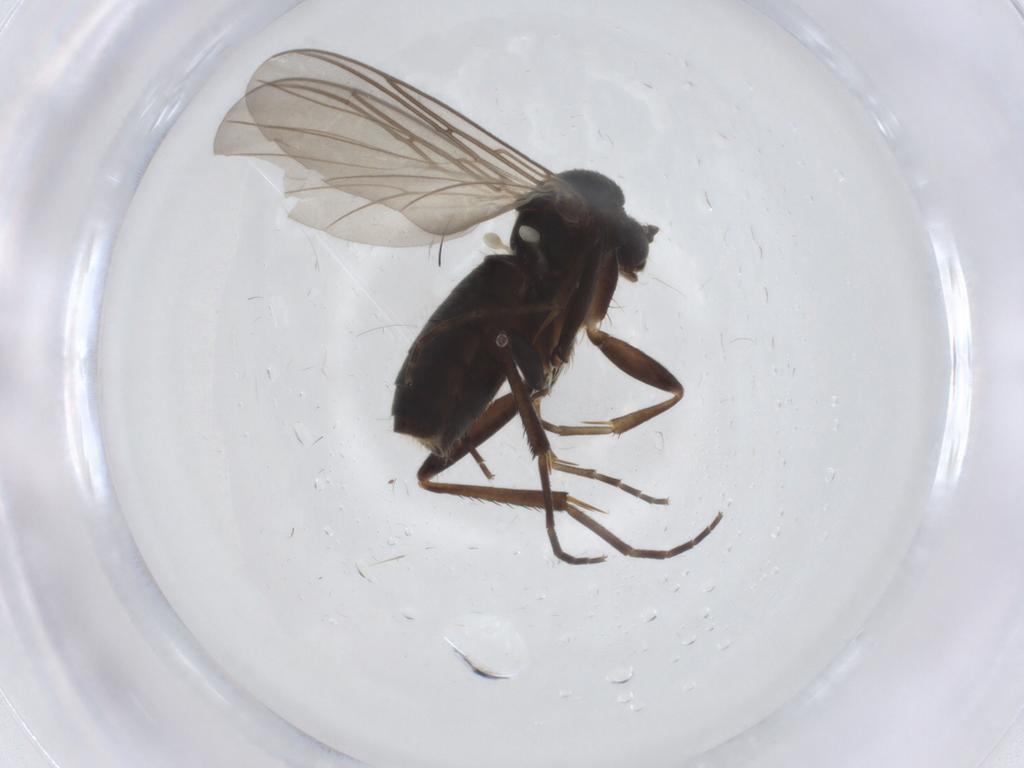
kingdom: Animalia
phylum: Arthropoda
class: Insecta
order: Diptera
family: Mycetophilidae
